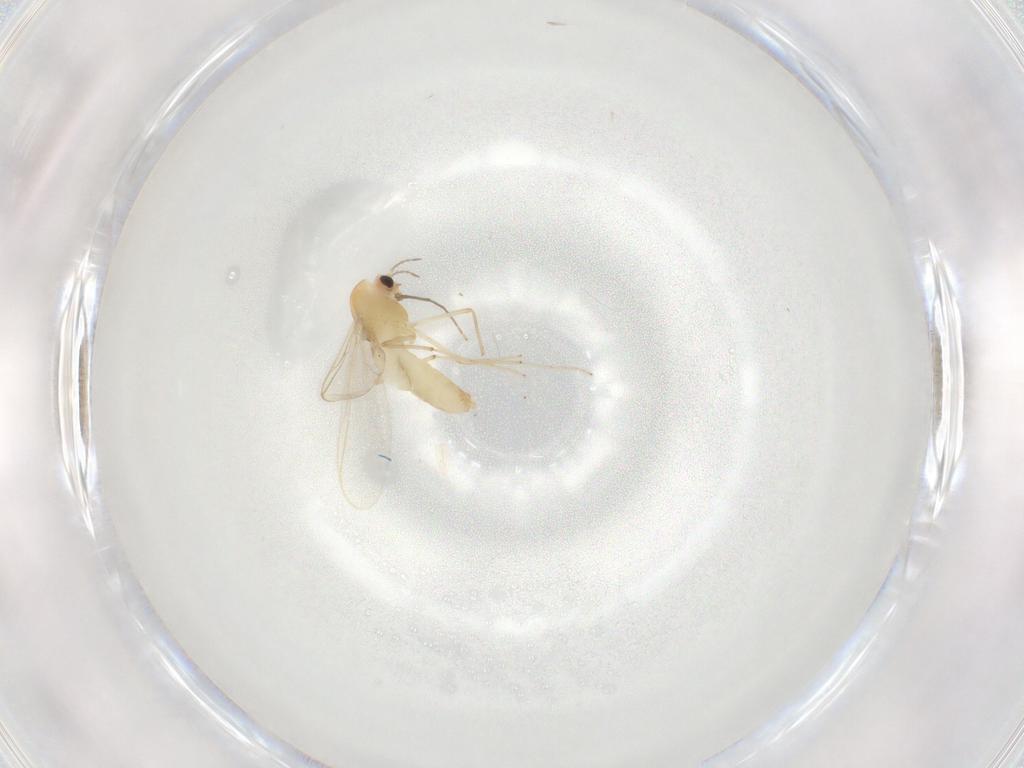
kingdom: Animalia
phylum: Arthropoda
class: Insecta
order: Diptera
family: Chironomidae
